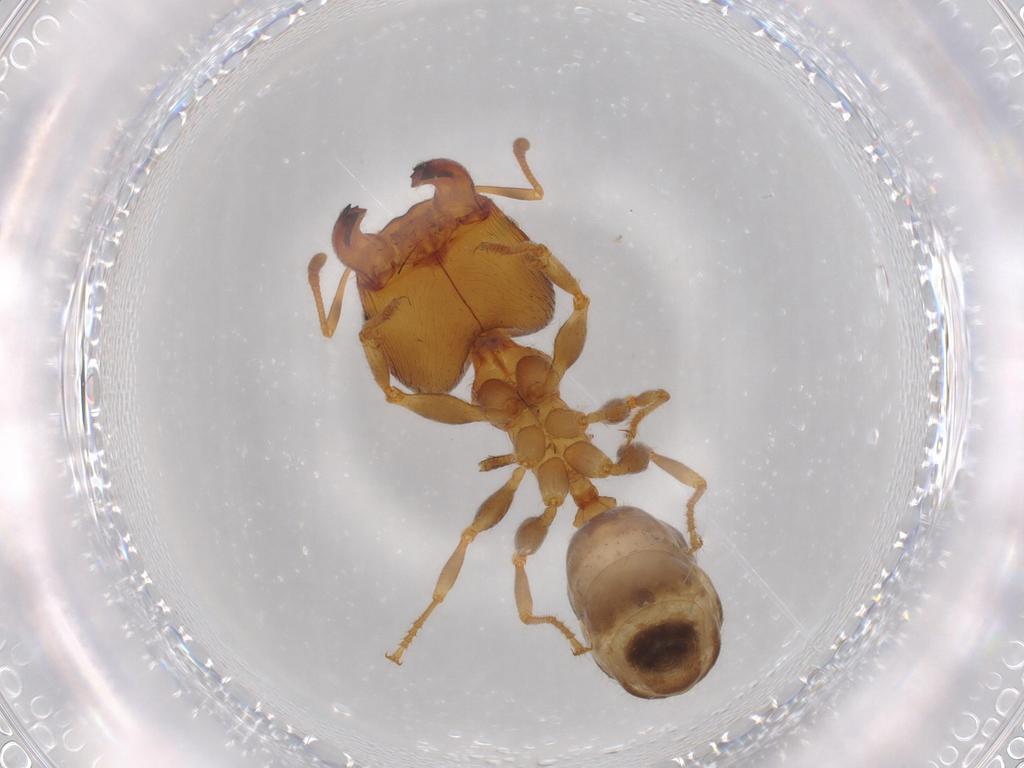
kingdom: Animalia
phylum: Arthropoda
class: Insecta
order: Hymenoptera
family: Formicidae
